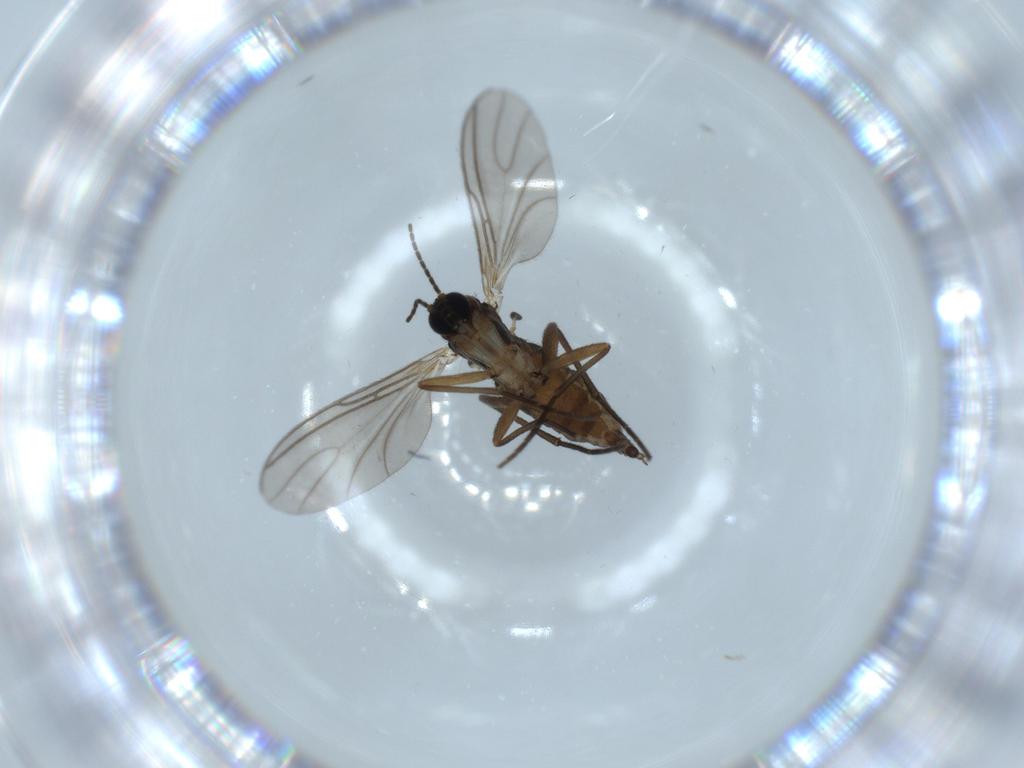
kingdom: Animalia
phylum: Arthropoda
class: Insecta
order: Diptera
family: Sciaridae
